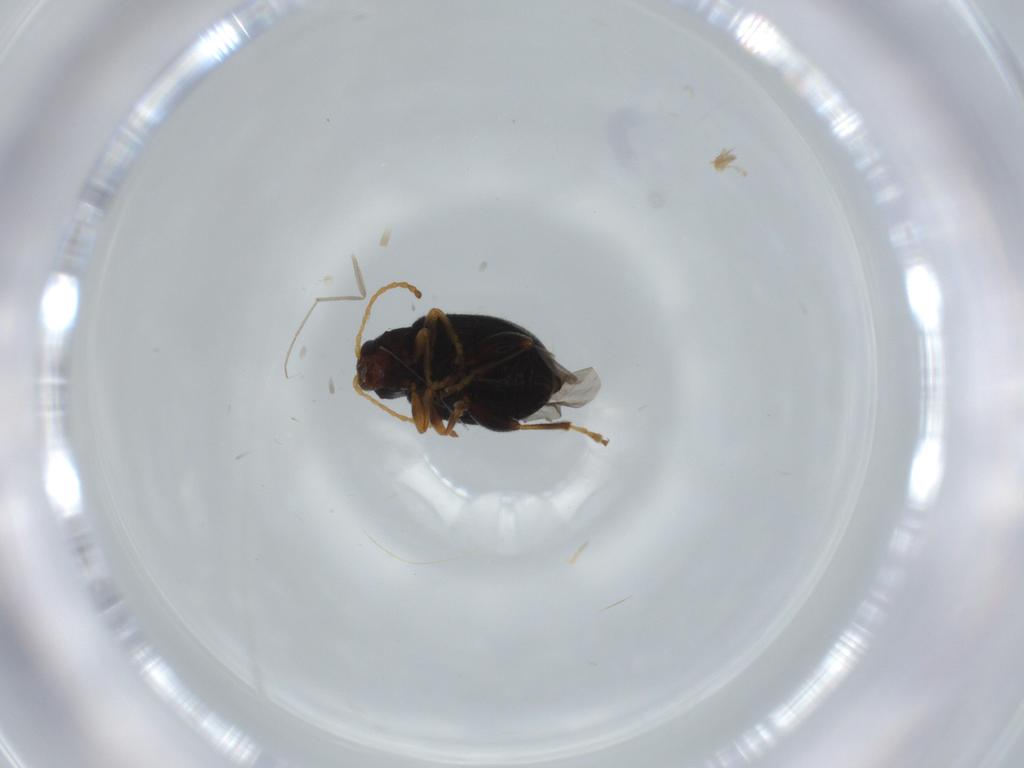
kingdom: Animalia
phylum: Arthropoda
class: Insecta
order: Coleoptera
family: Chrysomelidae
